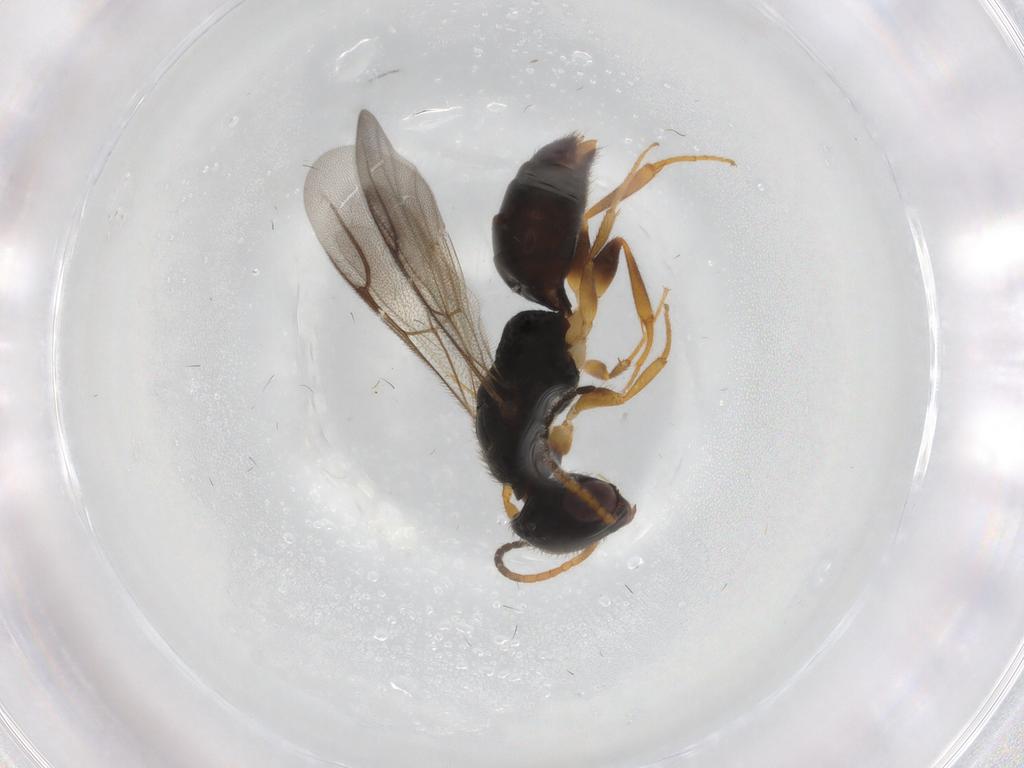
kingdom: Animalia
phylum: Arthropoda
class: Insecta
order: Hymenoptera
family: Bethylidae
